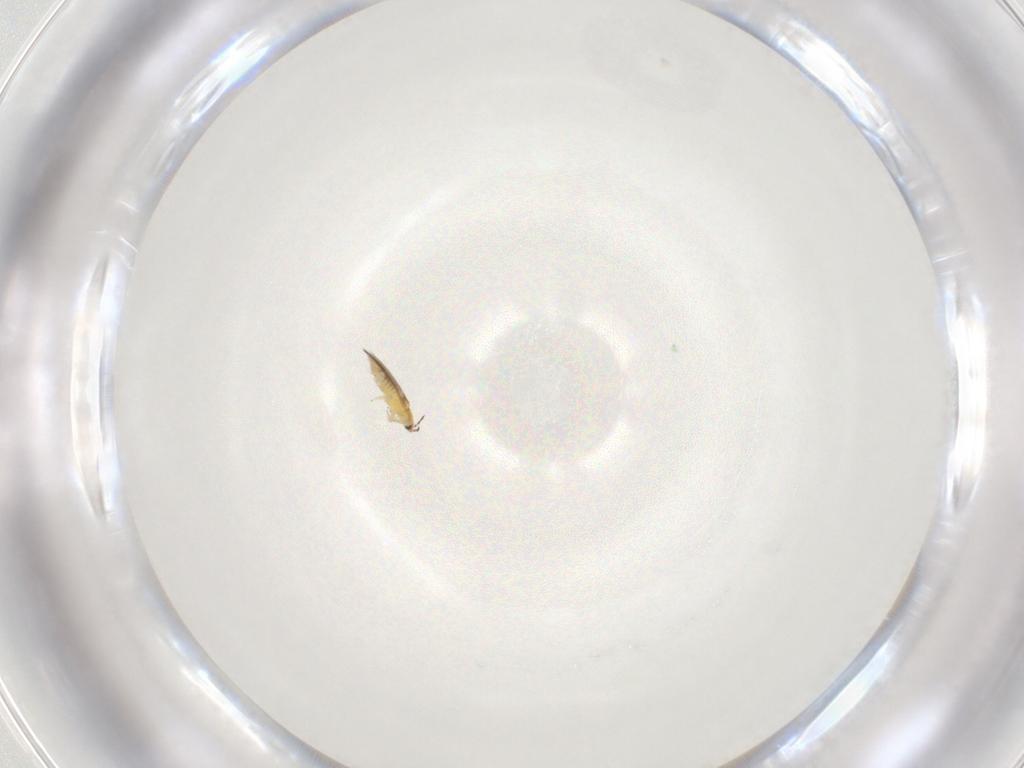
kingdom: Animalia
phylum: Arthropoda
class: Insecta
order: Thysanoptera
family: Thripidae
